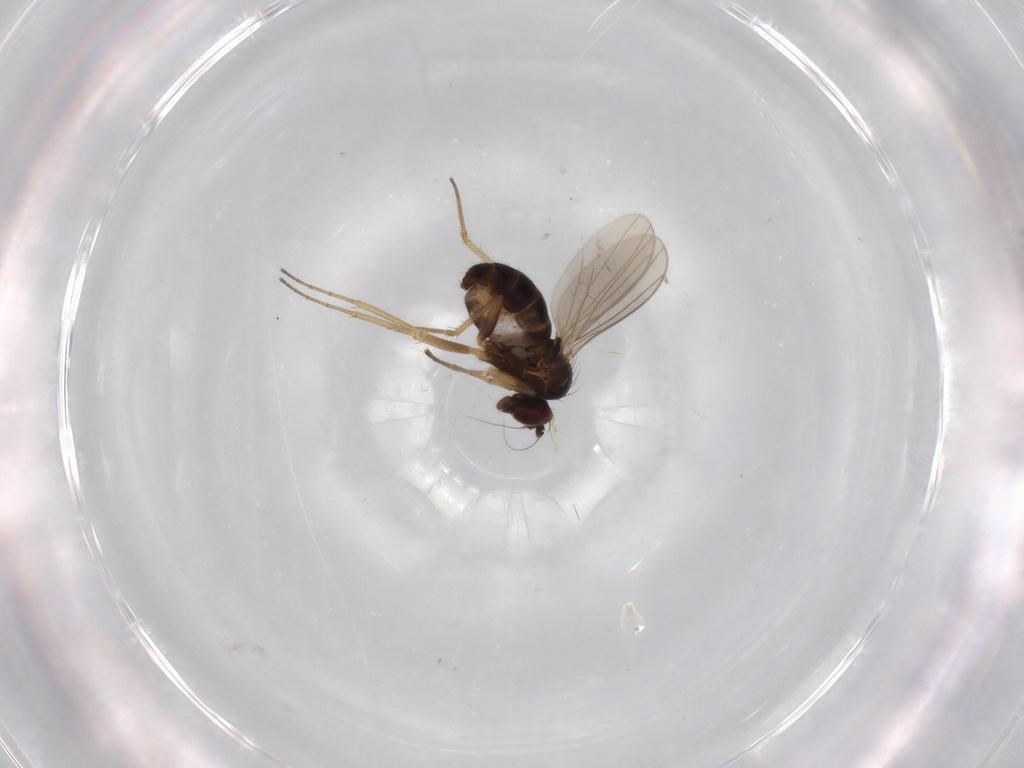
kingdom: Animalia
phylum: Arthropoda
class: Insecta
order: Diptera
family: Dolichopodidae
